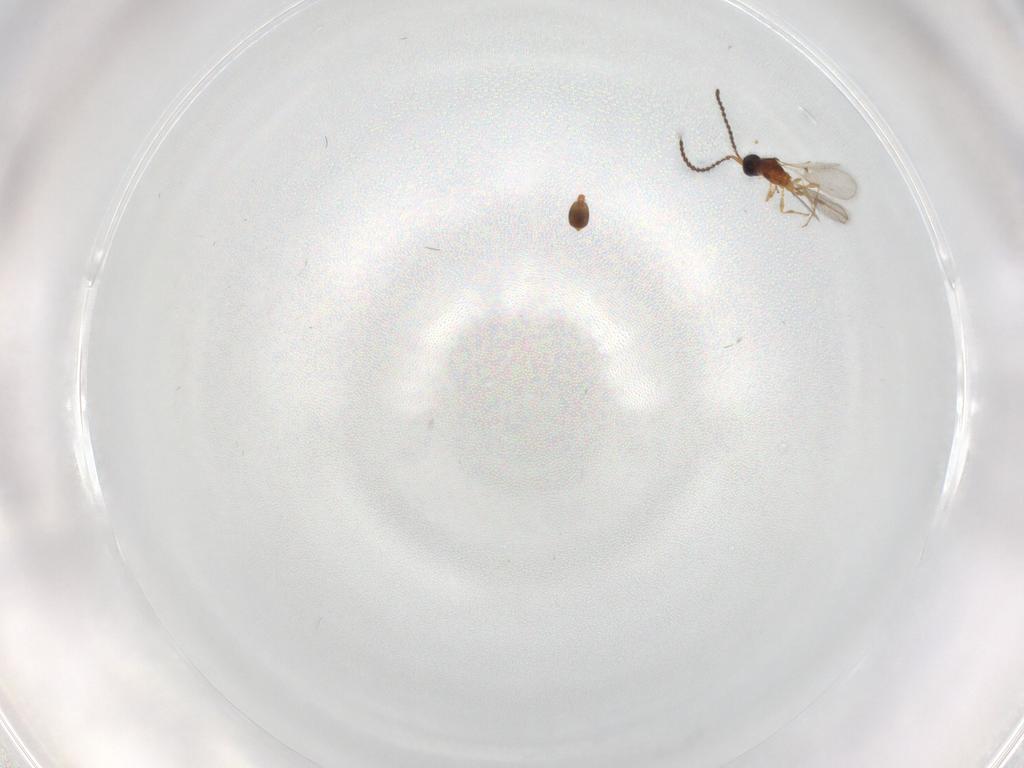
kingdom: Animalia
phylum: Arthropoda
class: Insecta
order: Hymenoptera
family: Diapriidae
